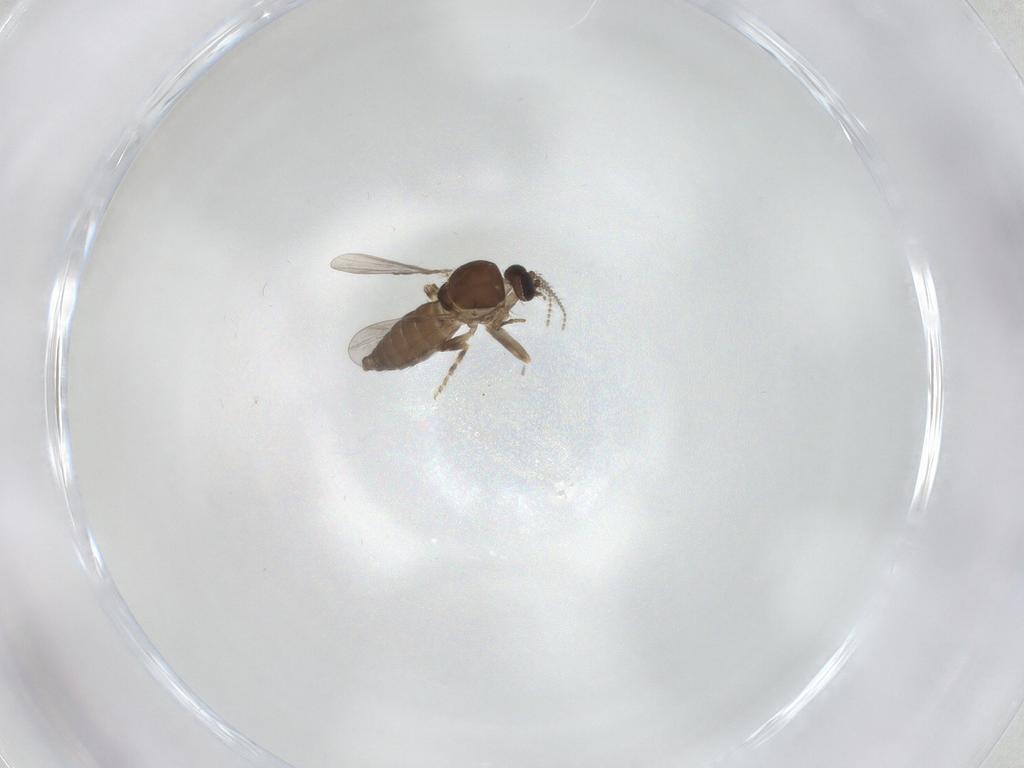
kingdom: Animalia
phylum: Arthropoda
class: Insecta
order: Diptera
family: Ceratopogonidae
